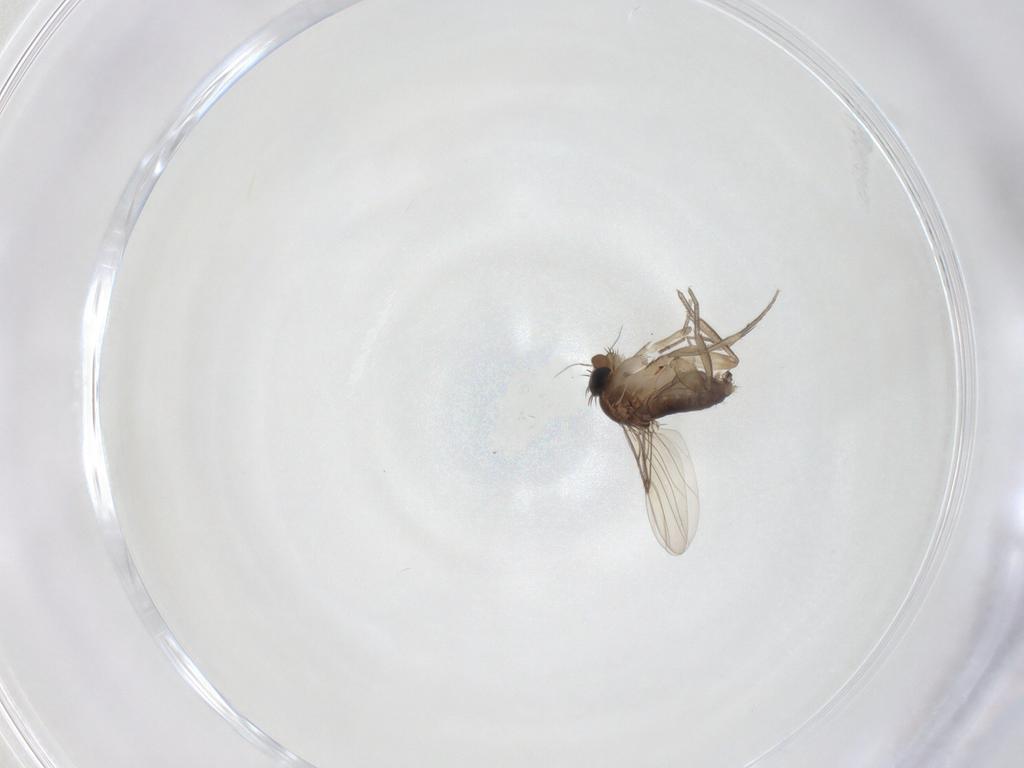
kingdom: Animalia
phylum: Arthropoda
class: Insecta
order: Diptera
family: Phoridae
